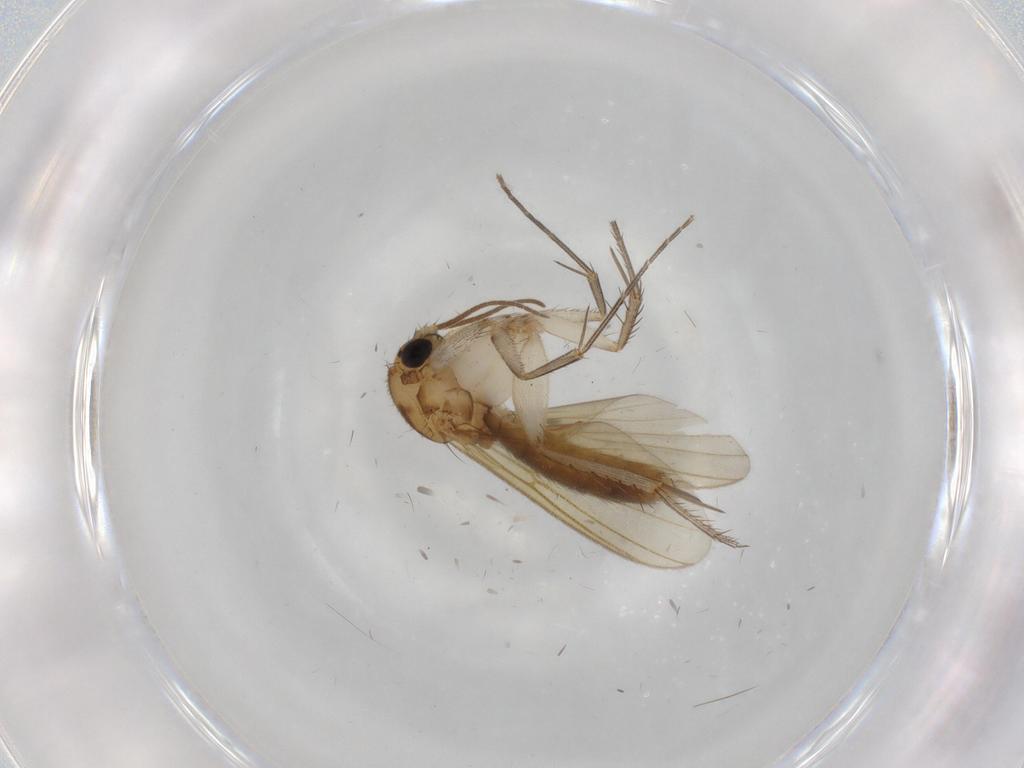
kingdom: Animalia
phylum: Arthropoda
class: Insecta
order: Diptera
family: Mycetophilidae
